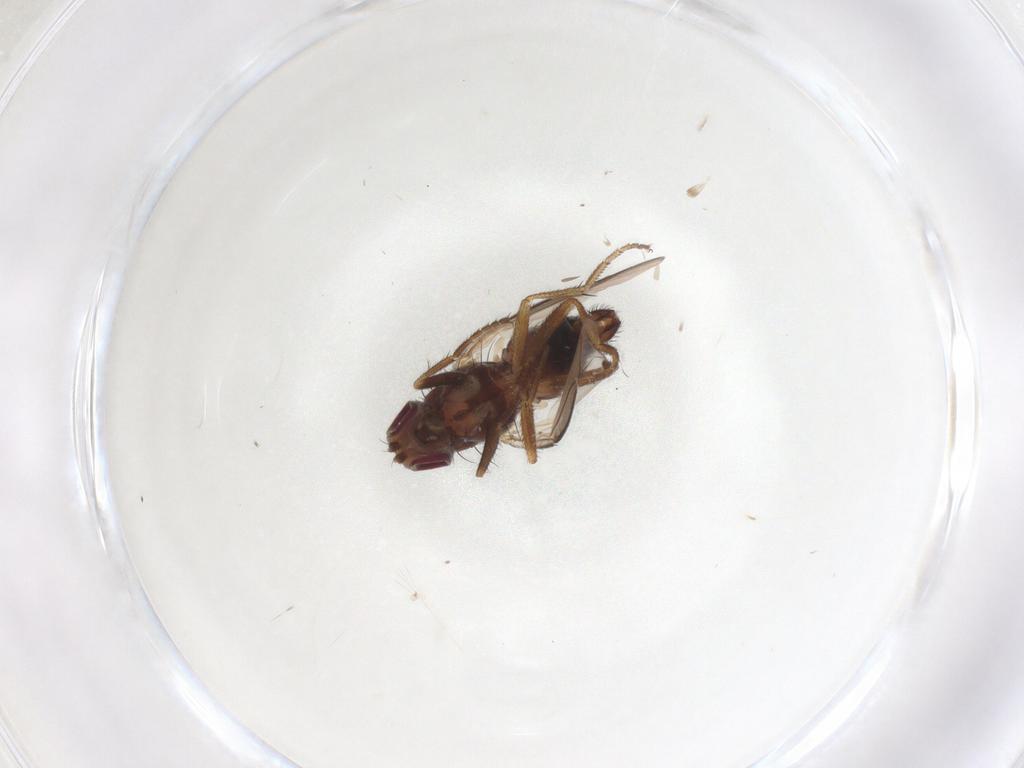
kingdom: Animalia
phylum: Arthropoda
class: Insecta
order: Diptera
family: Heleomyzidae
